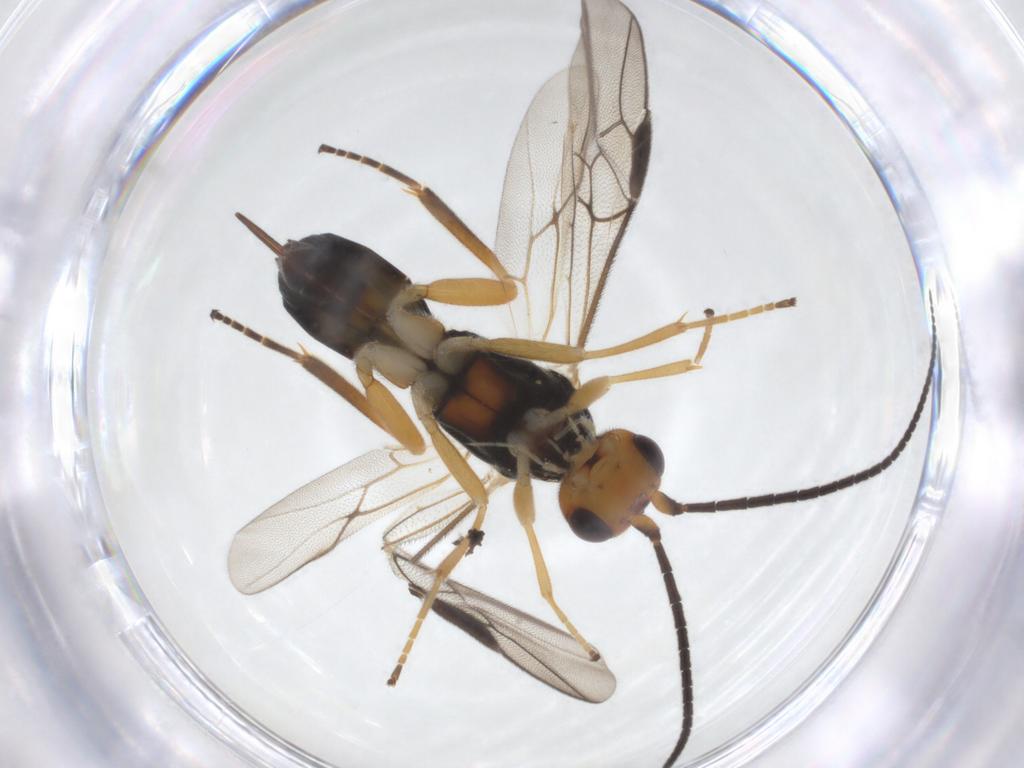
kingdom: Animalia
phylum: Arthropoda
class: Insecta
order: Hymenoptera
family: Braconidae
